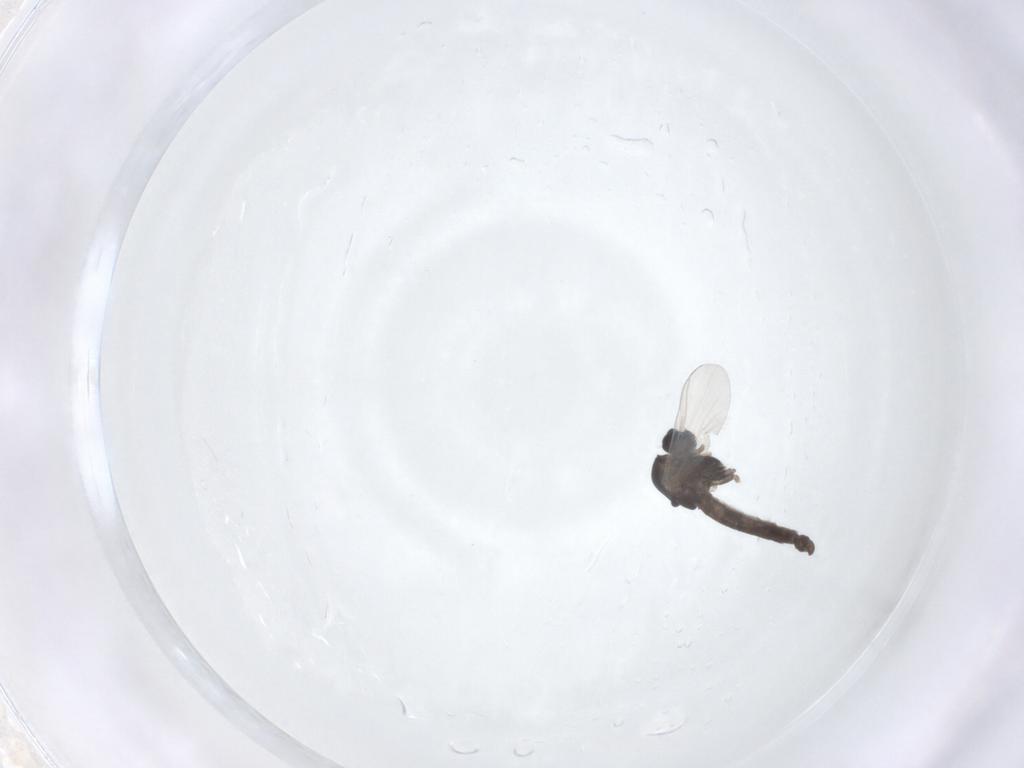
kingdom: Animalia
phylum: Arthropoda
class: Insecta
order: Diptera
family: Chironomidae
